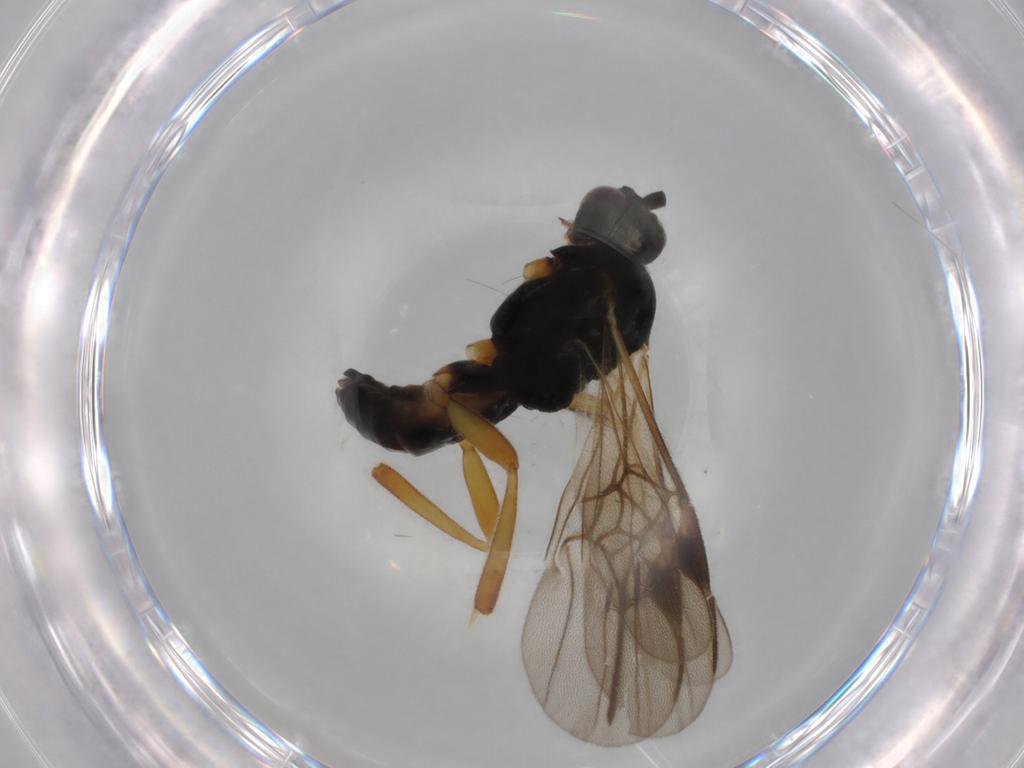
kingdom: Animalia
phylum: Arthropoda
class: Insecta
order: Hymenoptera
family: Braconidae
